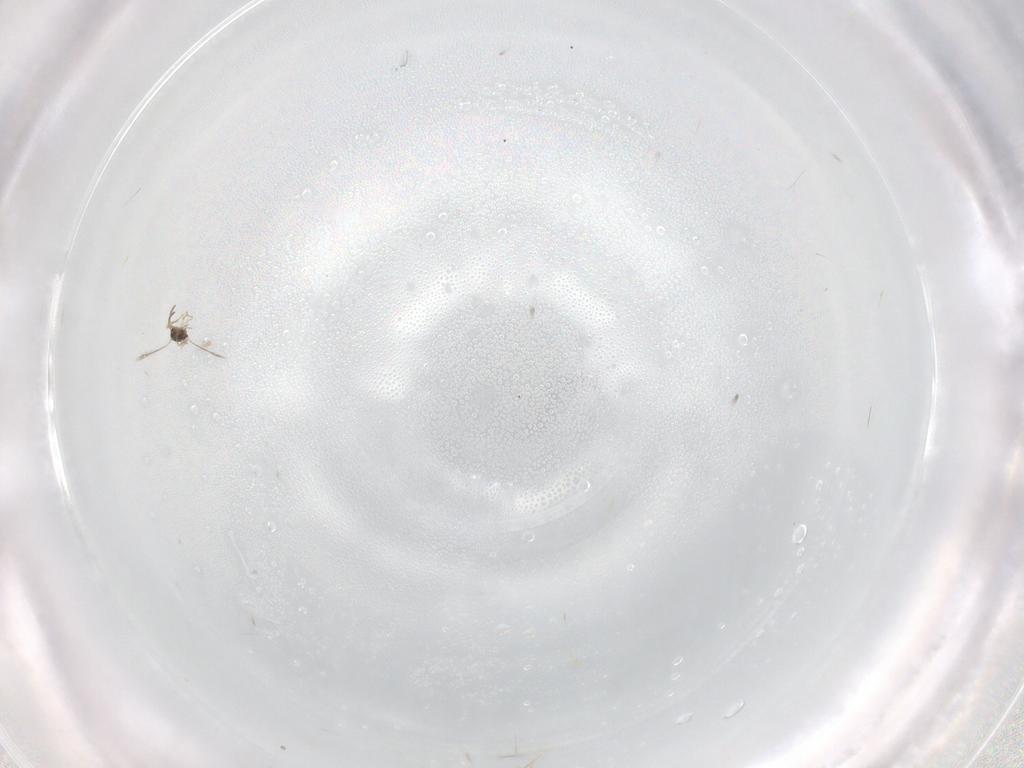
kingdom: Animalia
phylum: Arthropoda
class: Insecta
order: Hymenoptera
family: Mymaridae
